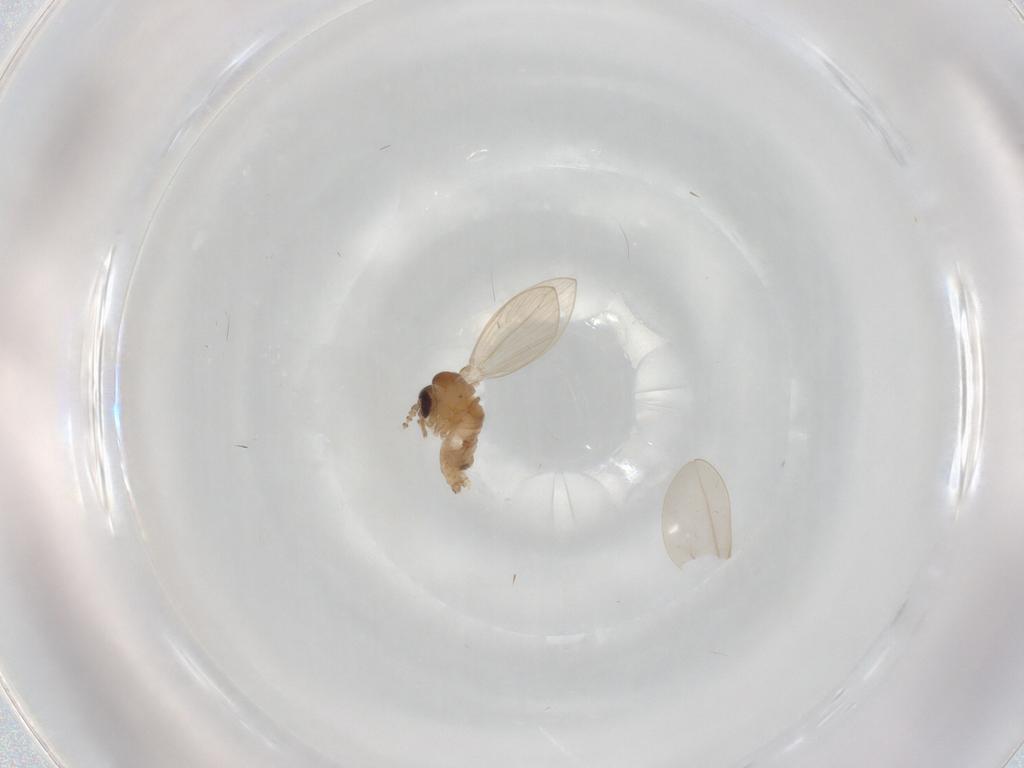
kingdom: Animalia
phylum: Arthropoda
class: Insecta
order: Diptera
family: Psychodidae
